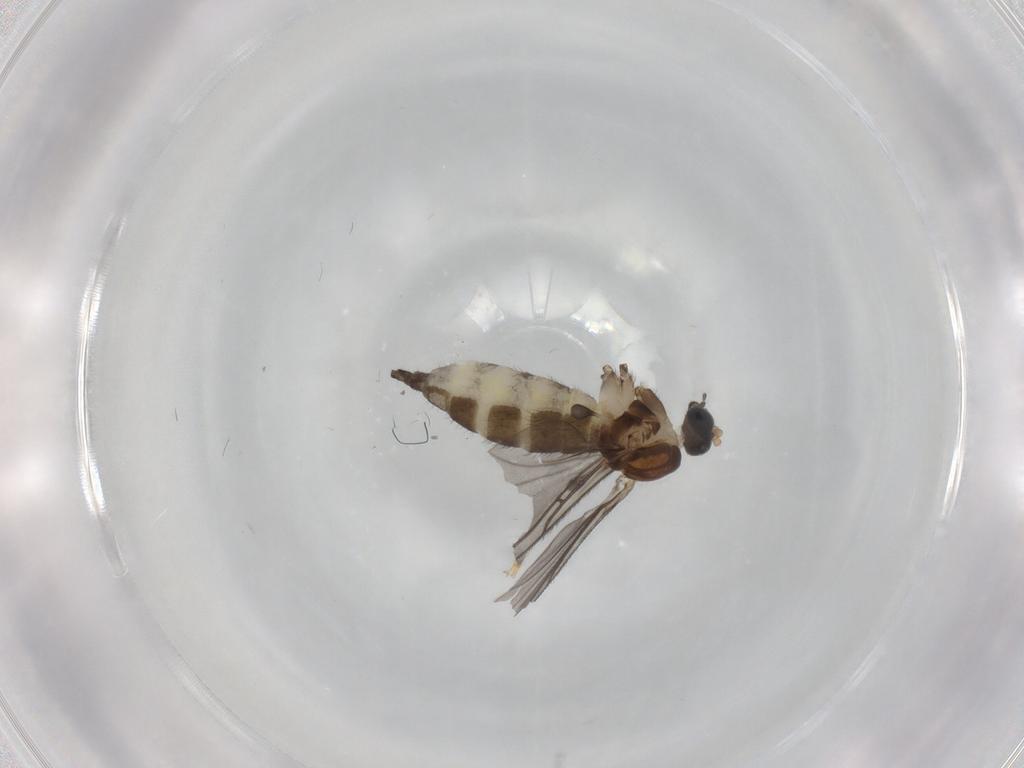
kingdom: Animalia
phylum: Arthropoda
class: Insecta
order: Diptera
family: Sciaridae
